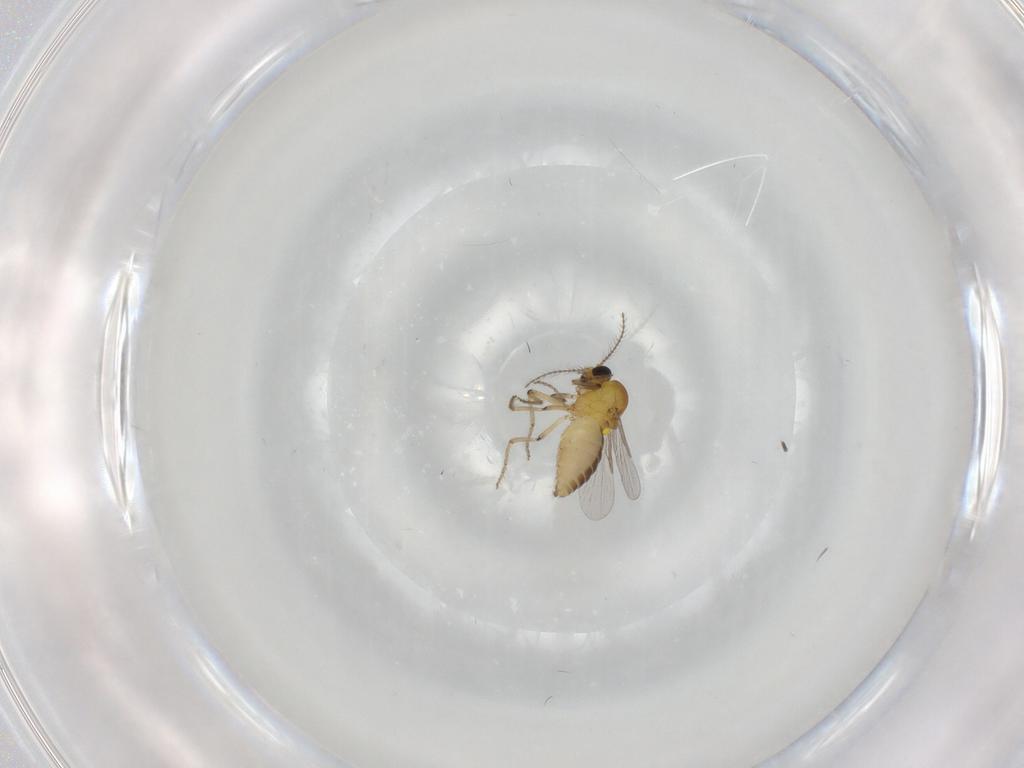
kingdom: Animalia
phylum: Arthropoda
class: Insecta
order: Diptera
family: Ceratopogonidae
